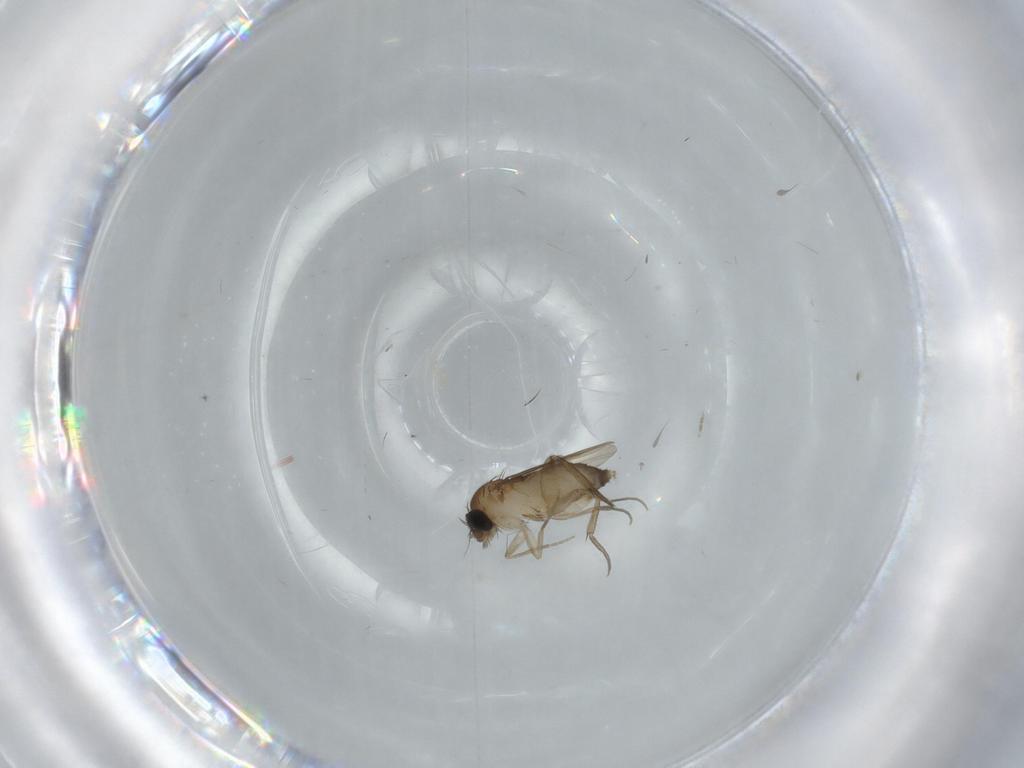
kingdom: Animalia
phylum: Arthropoda
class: Insecta
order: Diptera
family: Phoridae
